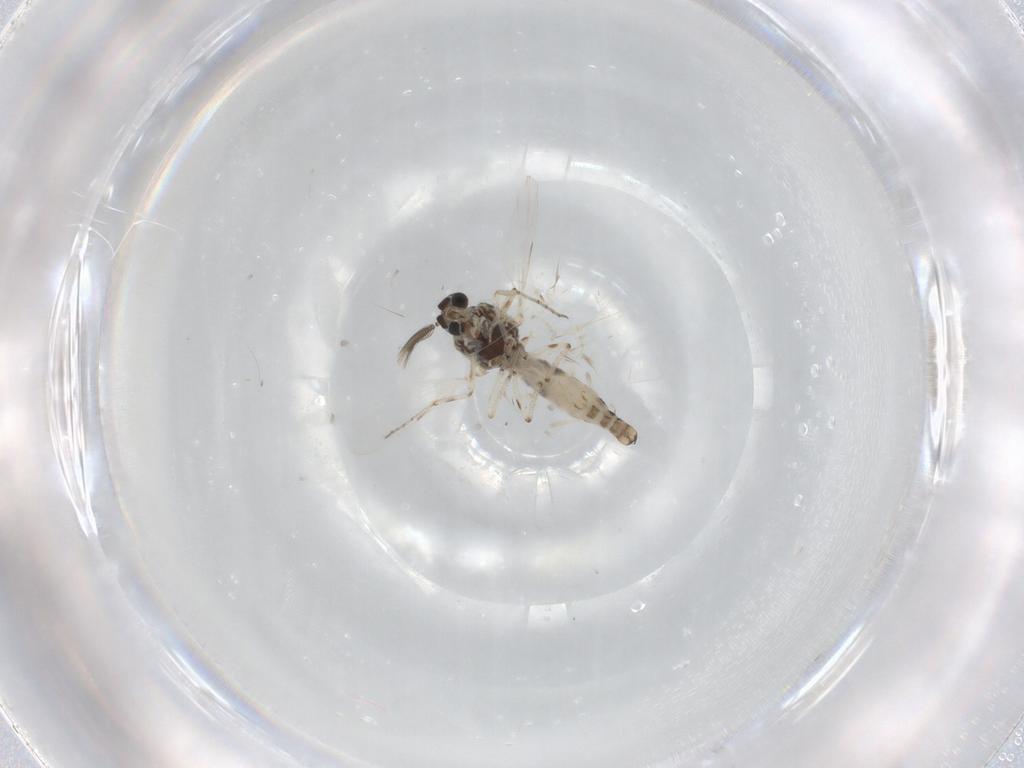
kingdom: Animalia
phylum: Arthropoda
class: Insecta
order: Diptera
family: Ceratopogonidae
